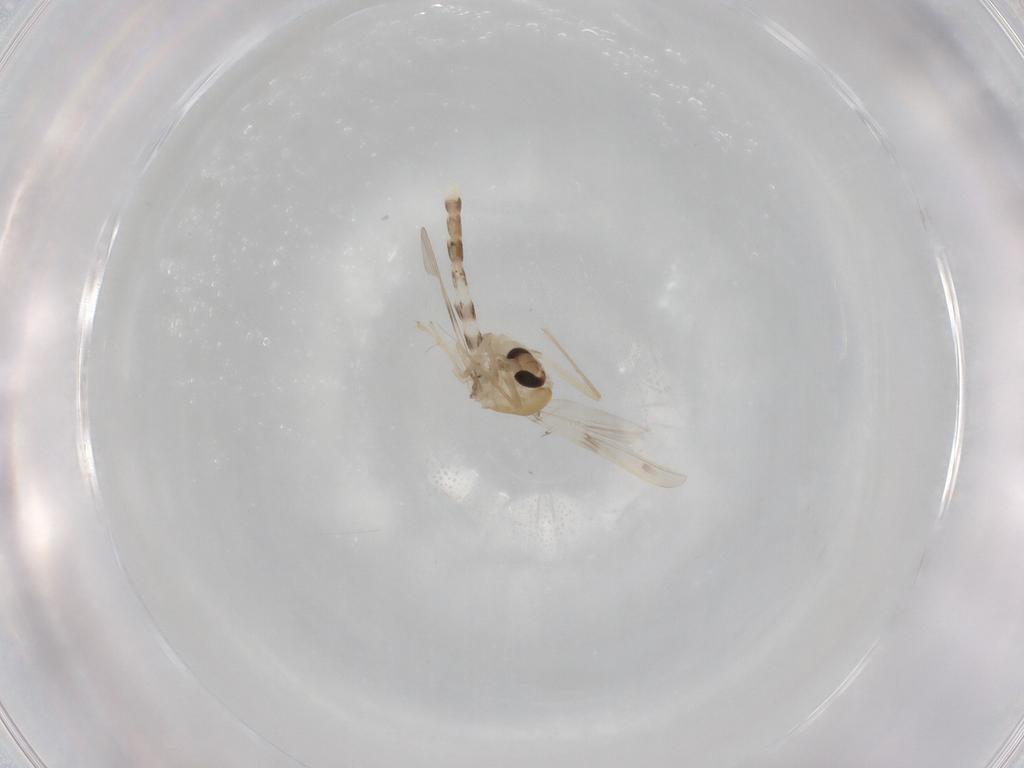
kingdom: Animalia
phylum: Arthropoda
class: Insecta
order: Diptera
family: Chironomidae
